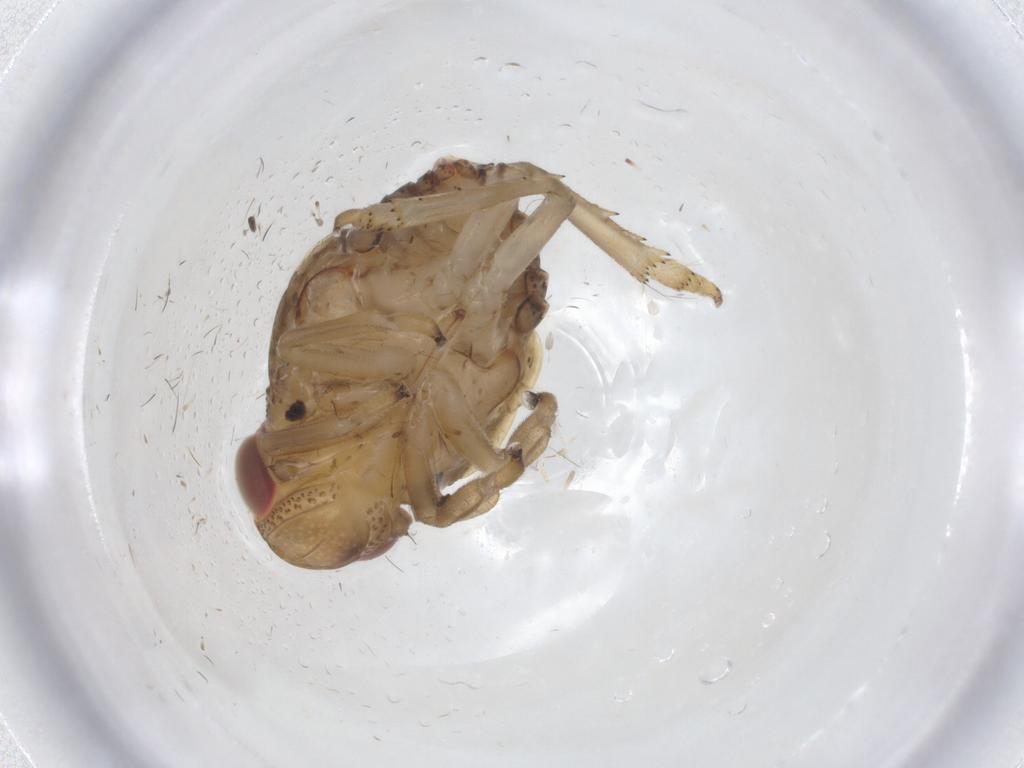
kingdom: Animalia
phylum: Arthropoda
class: Insecta
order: Hemiptera
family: Issidae
